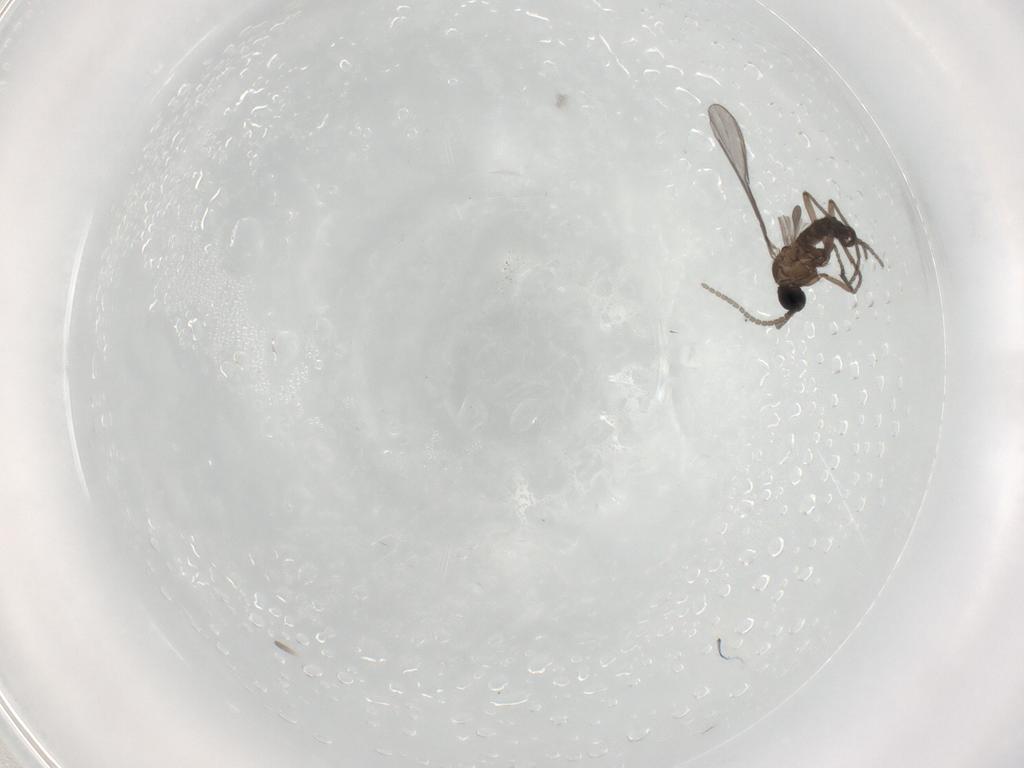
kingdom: Animalia
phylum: Arthropoda
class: Insecta
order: Diptera
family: Sciaridae
